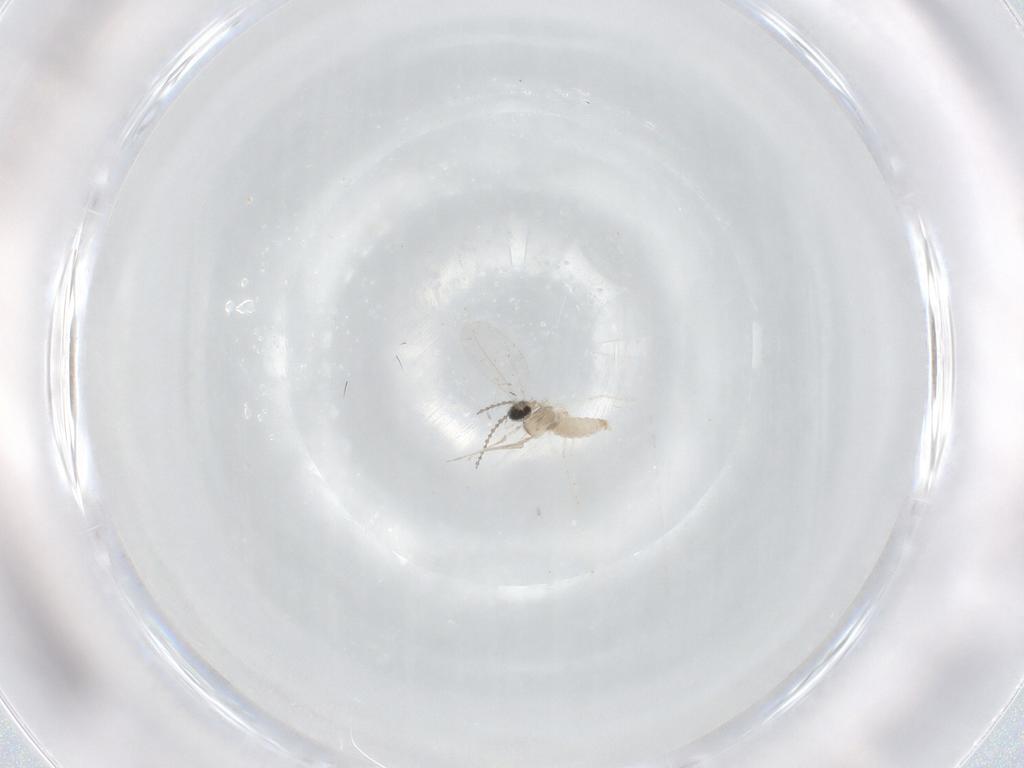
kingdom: Animalia
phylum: Arthropoda
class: Insecta
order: Diptera
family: Cecidomyiidae
